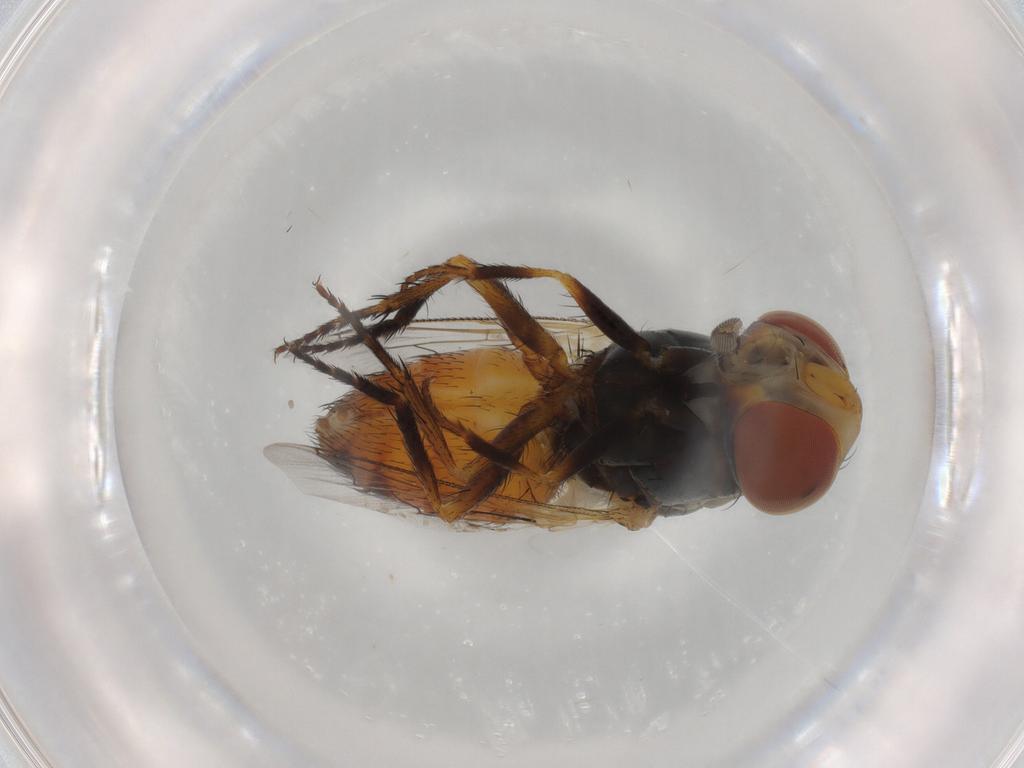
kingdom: Animalia
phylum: Arthropoda
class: Insecta
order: Diptera
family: Sarcophagidae
